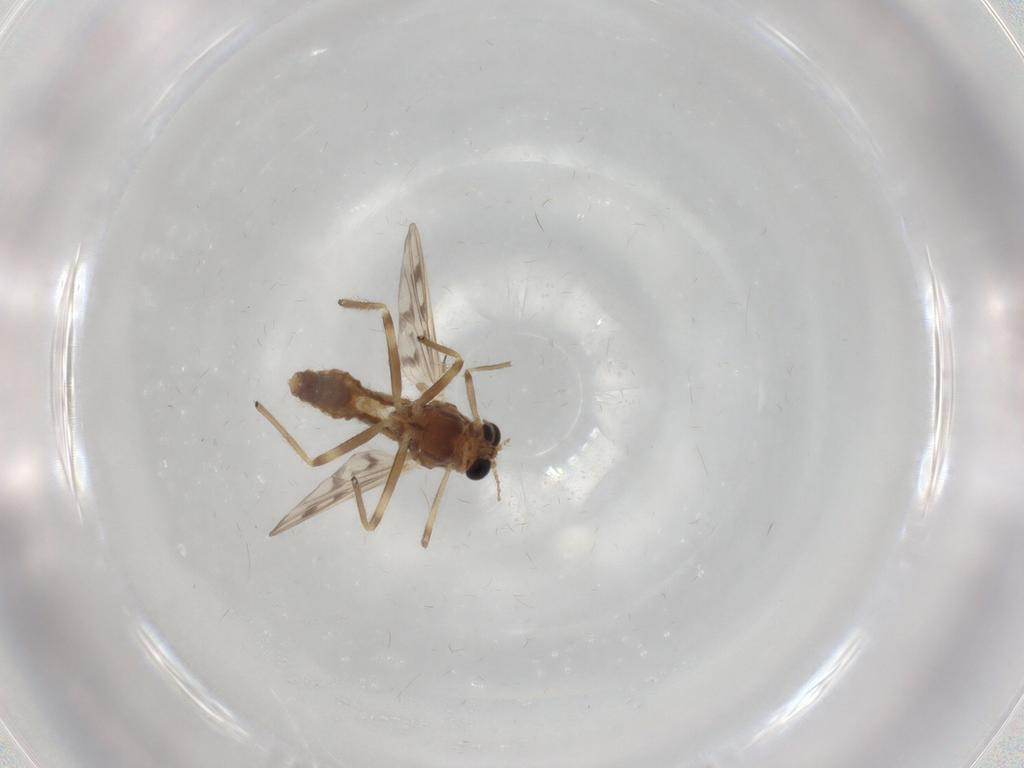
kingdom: Animalia
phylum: Arthropoda
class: Insecta
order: Diptera
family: Chironomidae
